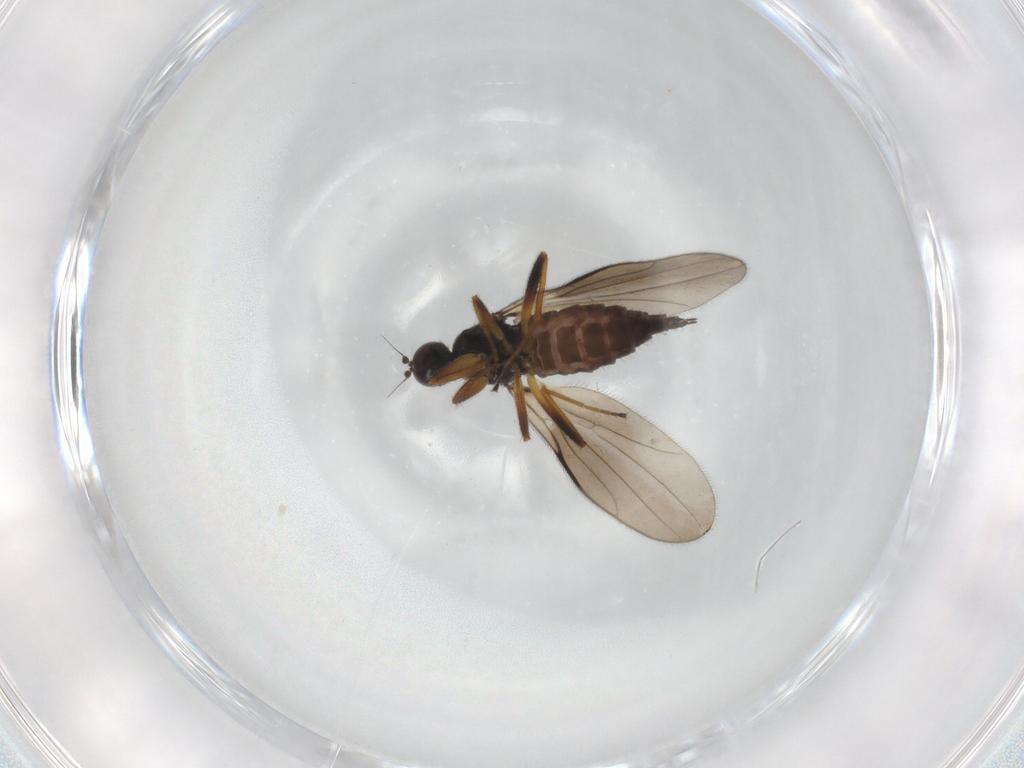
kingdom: Animalia
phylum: Arthropoda
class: Insecta
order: Diptera
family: Hybotidae
